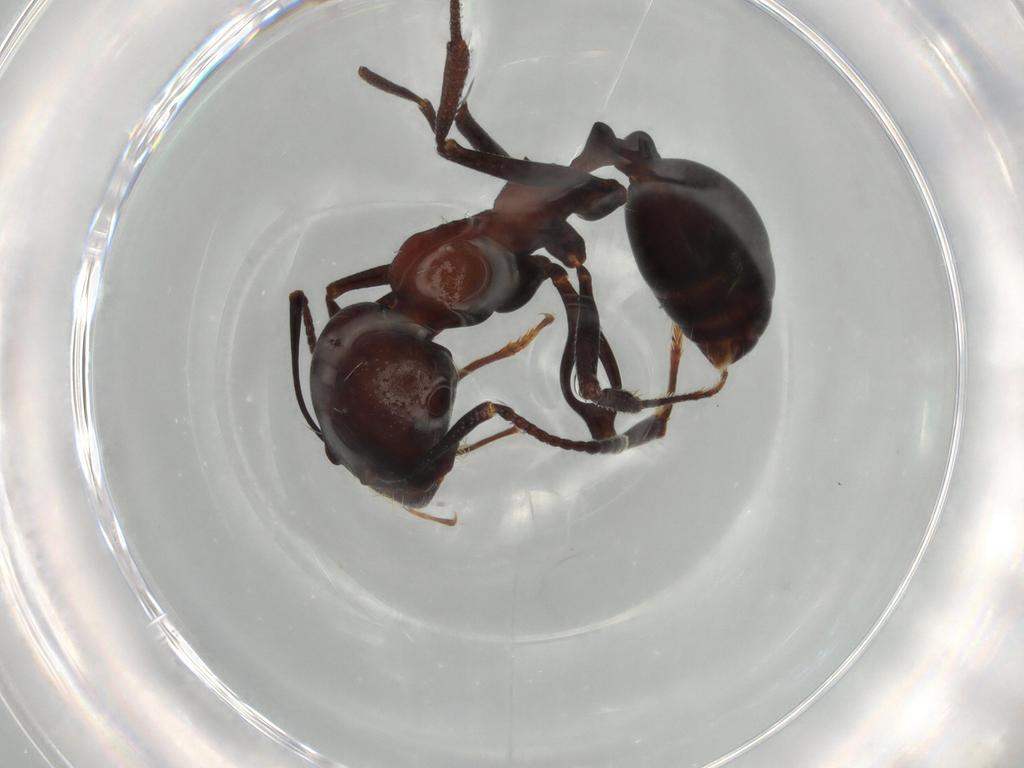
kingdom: Animalia
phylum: Arthropoda
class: Insecta
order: Hymenoptera
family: Formicidae
